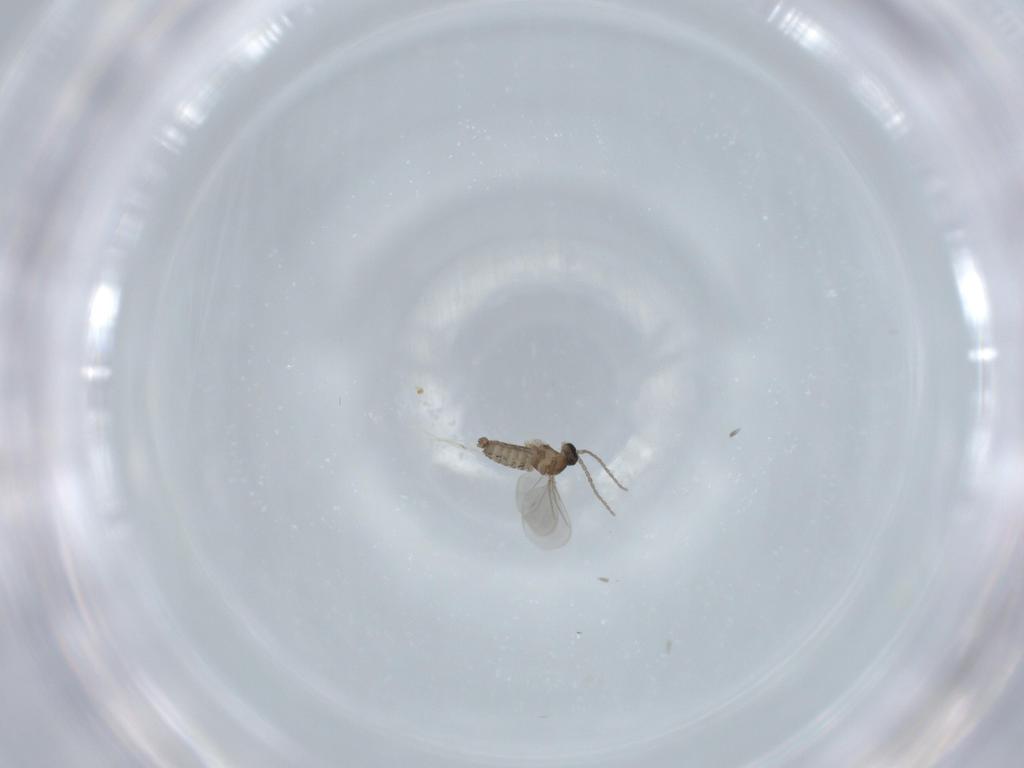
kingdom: Animalia
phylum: Arthropoda
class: Insecta
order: Diptera
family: Cecidomyiidae
